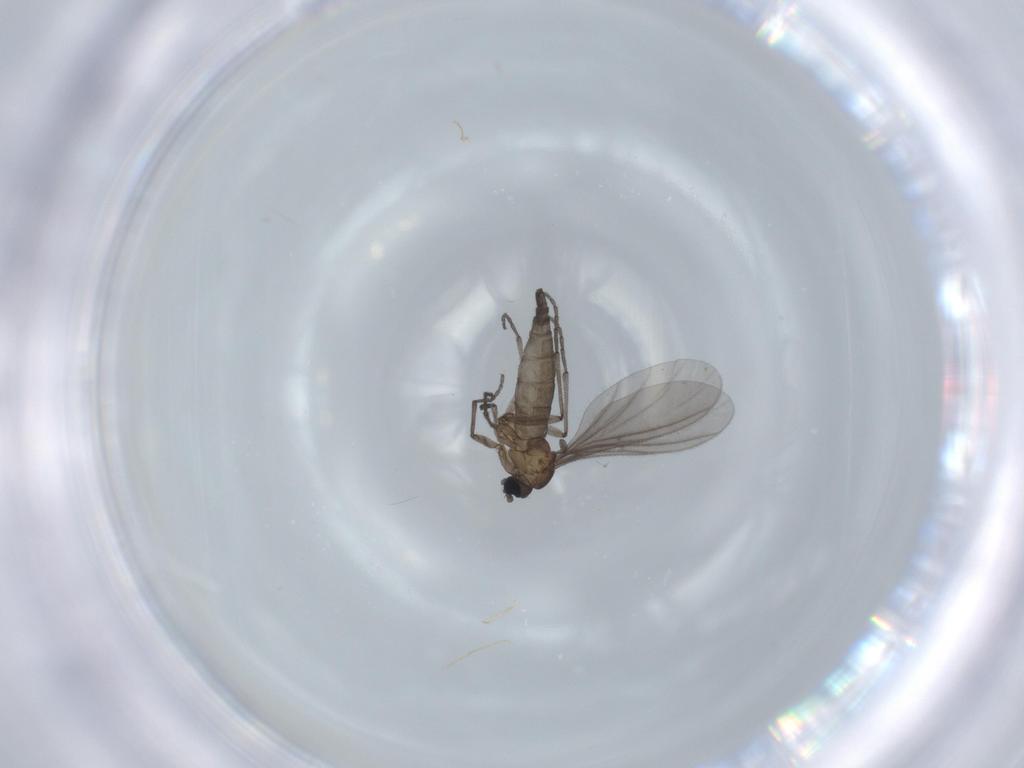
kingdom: Animalia
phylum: Arthropoda
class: Insecta
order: Diptera
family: Sciaridae
